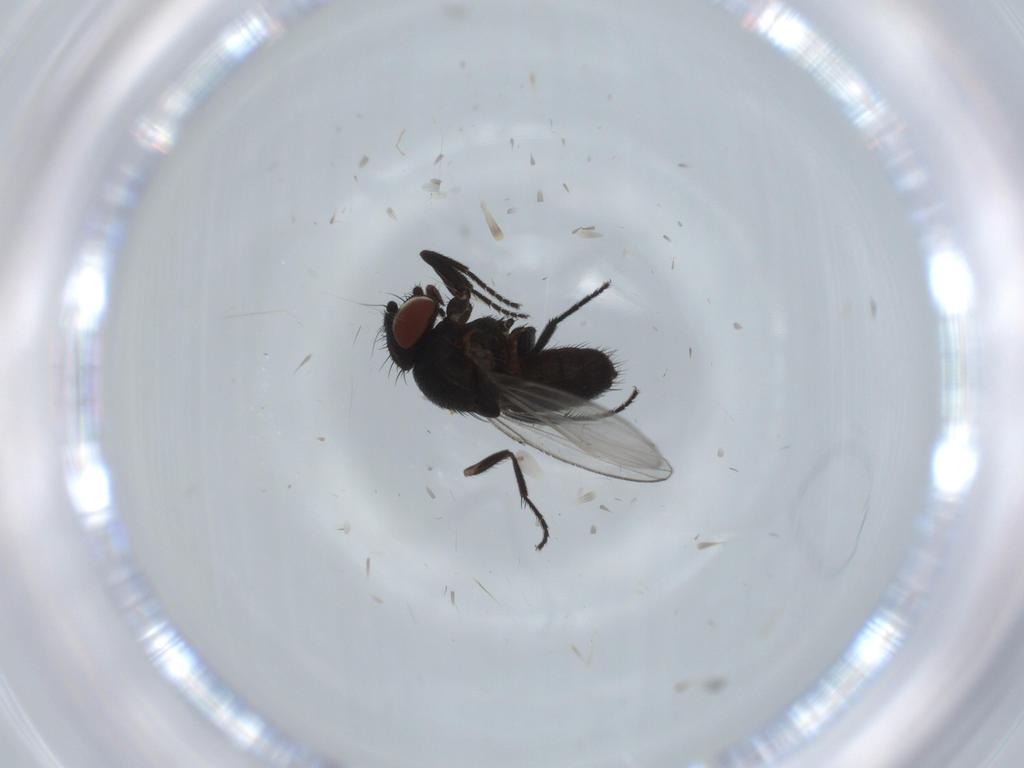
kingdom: Animalia
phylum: Arthropoda
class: Insecta
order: Diptera
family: Milichiidae
